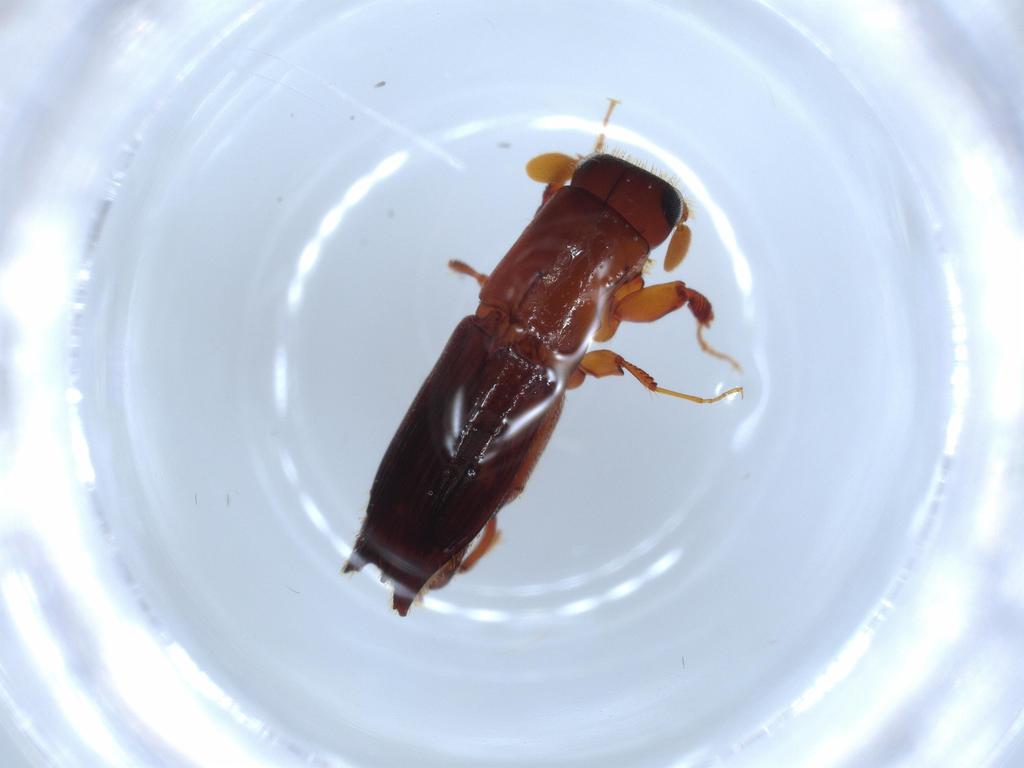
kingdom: Animalia
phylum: Arthropoda
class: Insecta
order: Coleoptera
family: Curculionidae
